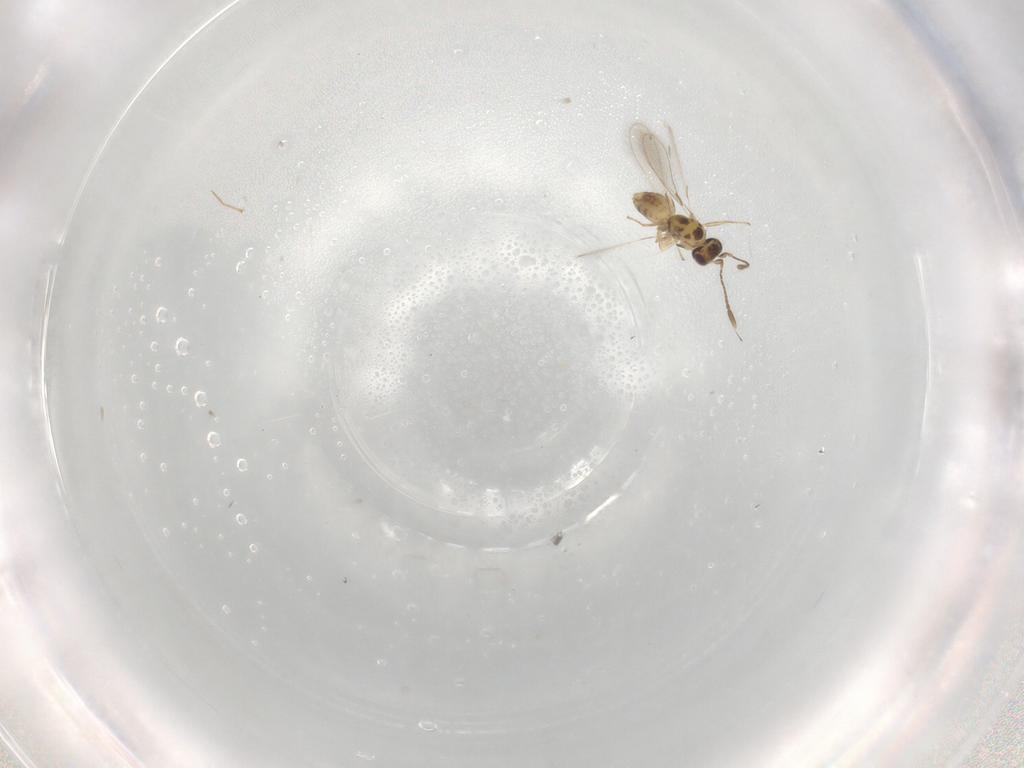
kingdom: Animalia
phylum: Arthropoda
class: Insecta
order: Hymenoptera
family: Mymaridae
